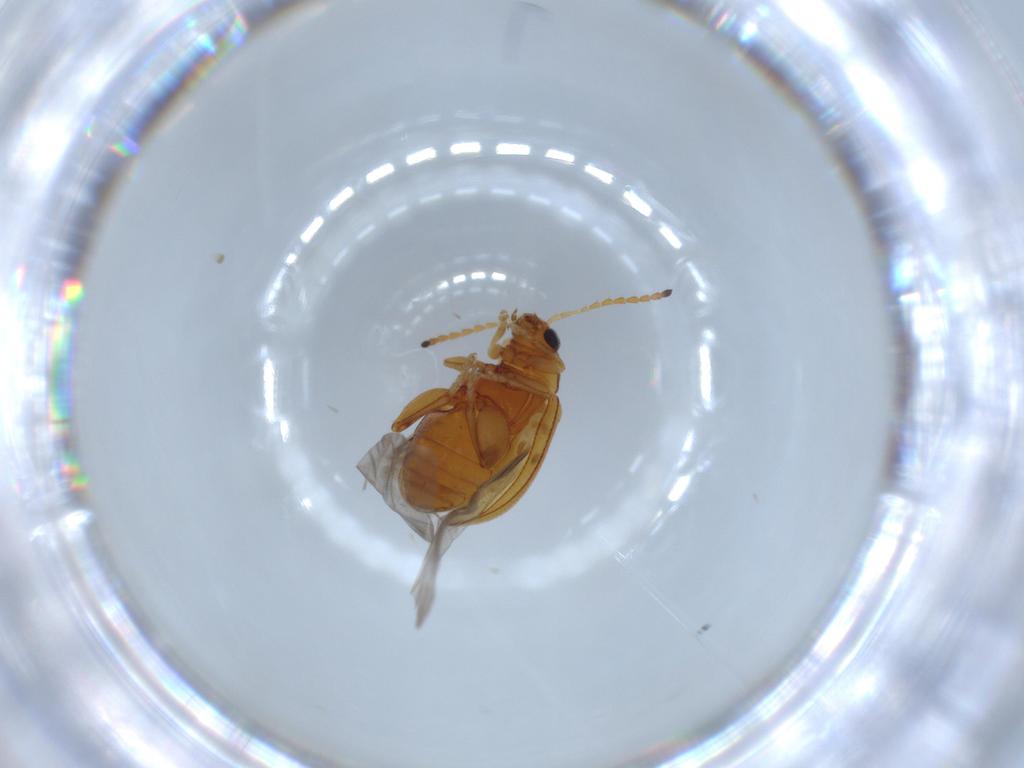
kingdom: Animalia
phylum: Arthropoda
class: Insecta
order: Coleoptera
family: Chrysomelidae
